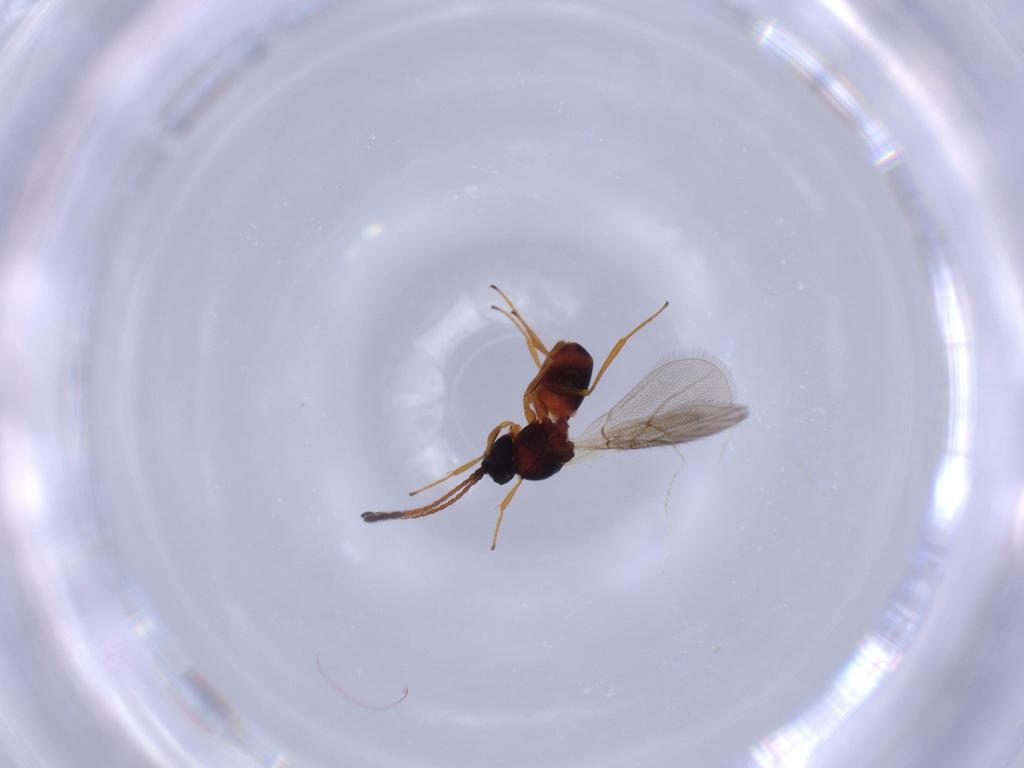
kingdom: Animalia
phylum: Arthropoda
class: Insecta
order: Hymenoptera
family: Figitidae
